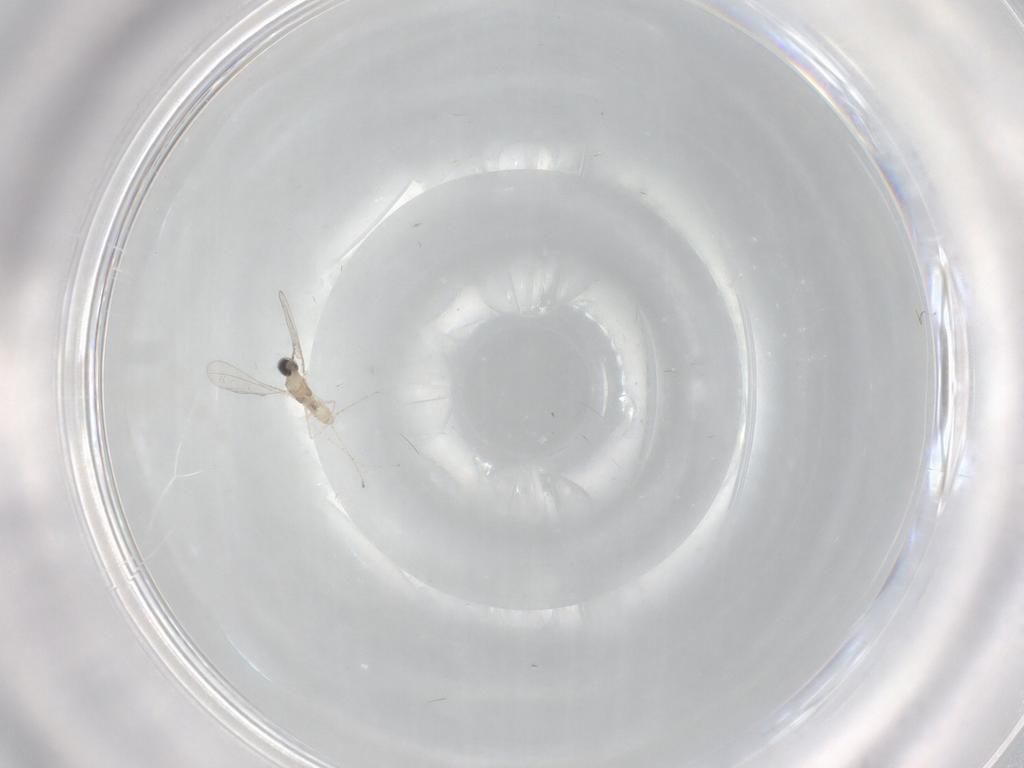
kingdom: Animalia
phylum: Arthropoda
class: Insecta
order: Diptera
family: Cecidomyiidae
